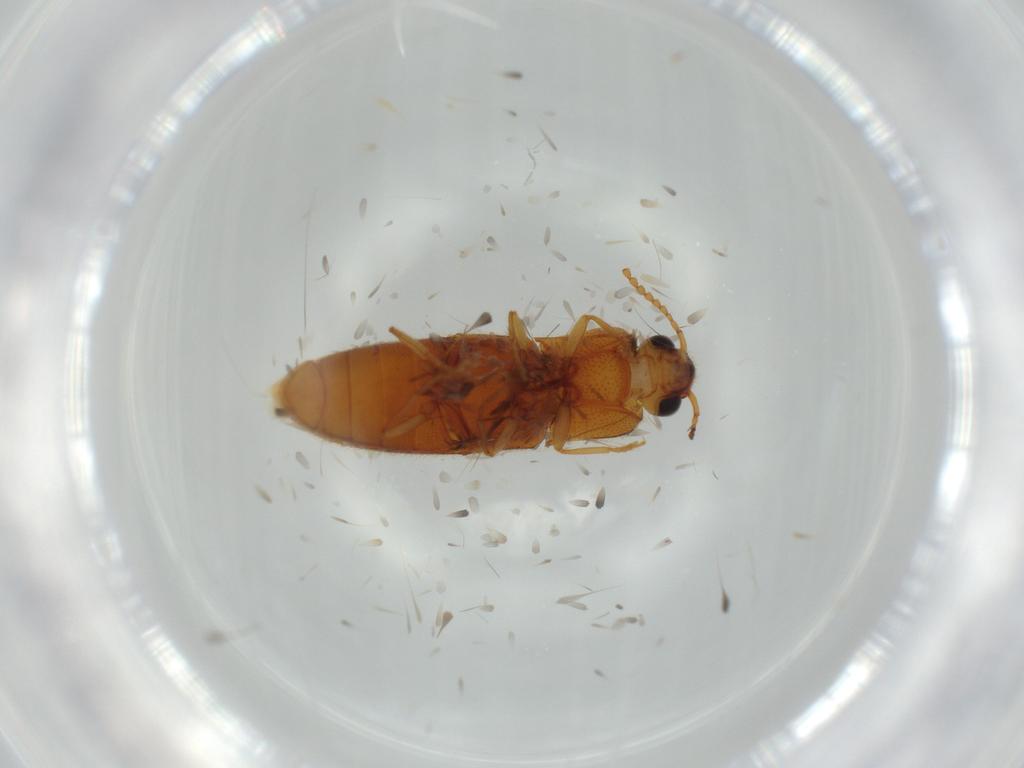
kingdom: Animalia
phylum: Arthropoda
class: Insecta
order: Coleoptera
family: Elateridae
